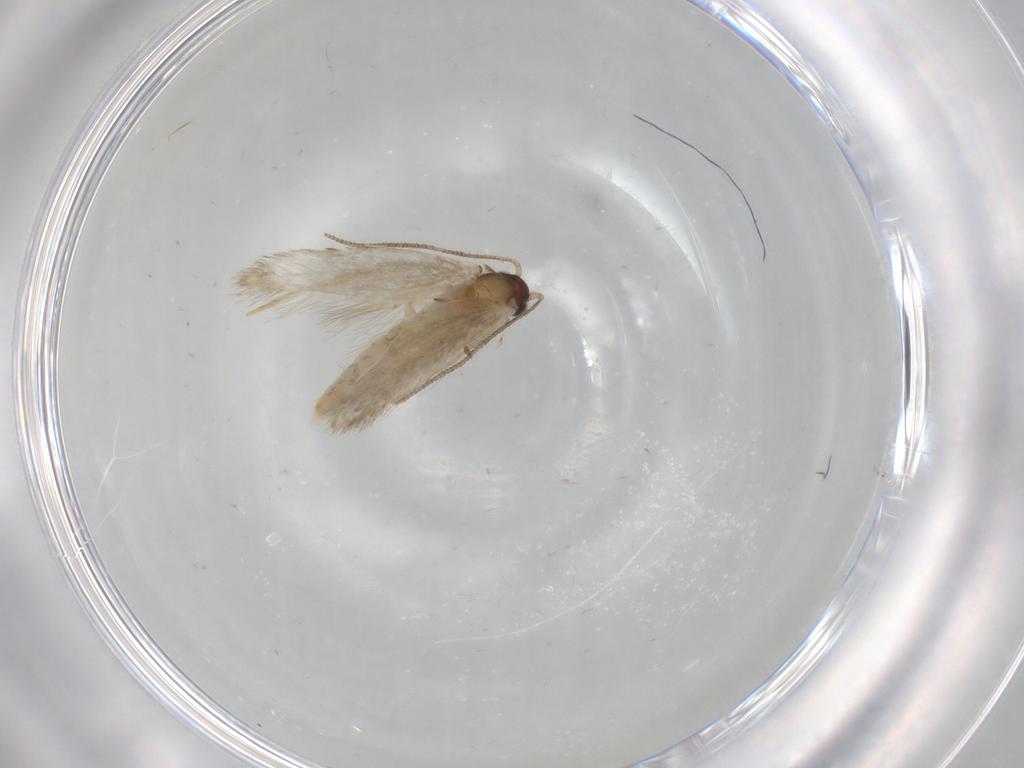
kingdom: Animalia
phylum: Arthropoda
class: Insecta
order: Lepidoptera
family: Tineidae
